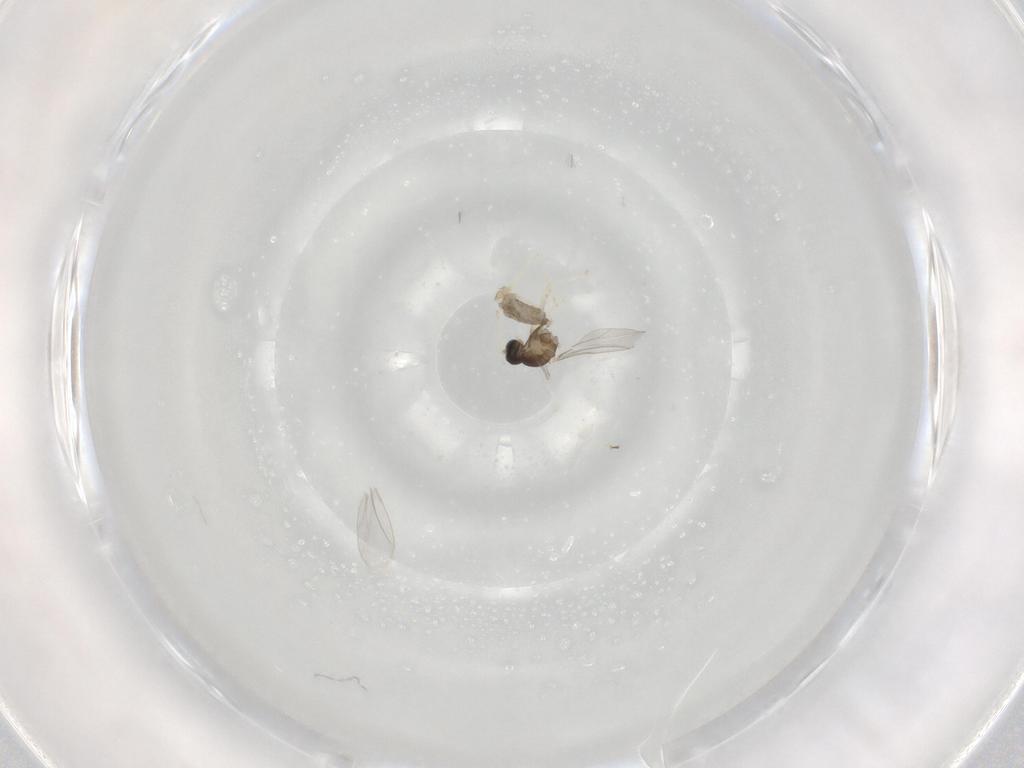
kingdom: Animalia
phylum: Arthropoda
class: Insecta
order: Diptera
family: Cecidomyiidae
